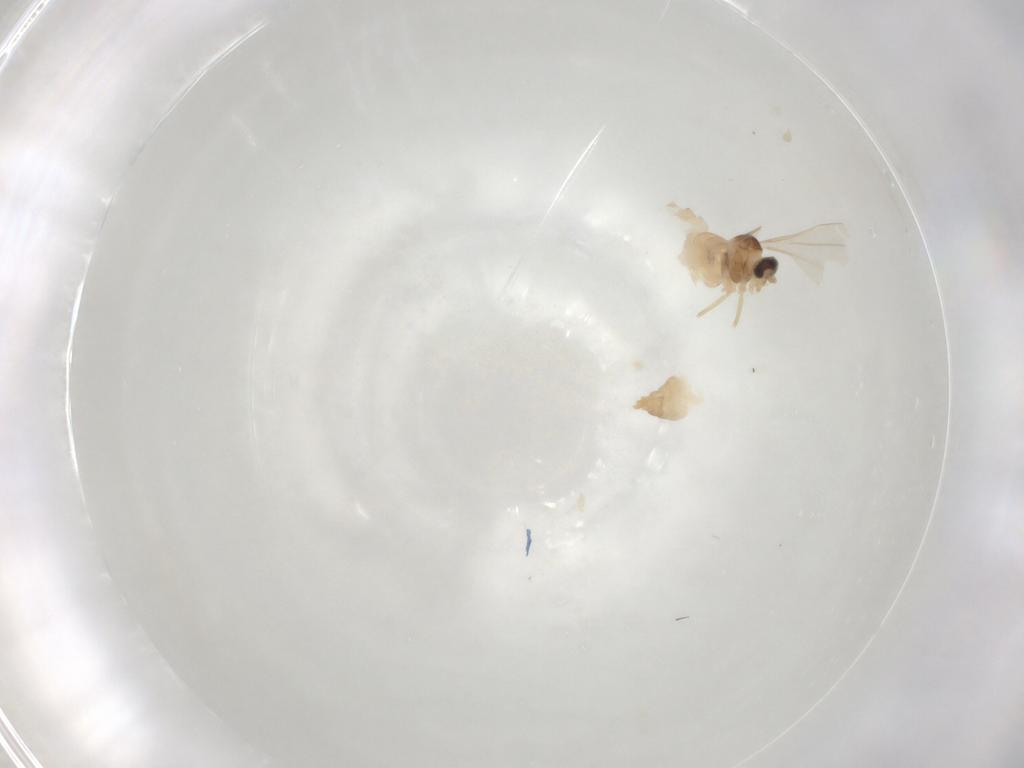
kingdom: Animalia
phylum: Arthropoda
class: Insecta
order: Diptera
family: Cecidomyiidae
